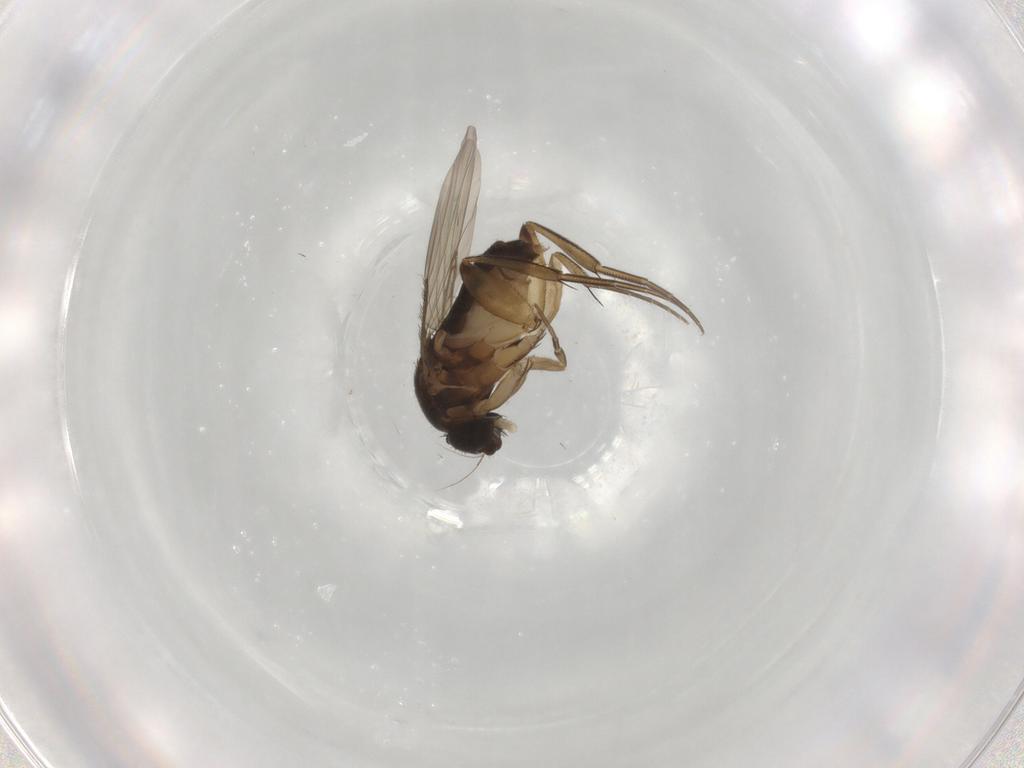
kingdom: Animalia
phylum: Arthropoda
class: Insecta
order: Diptera
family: Phoridae
